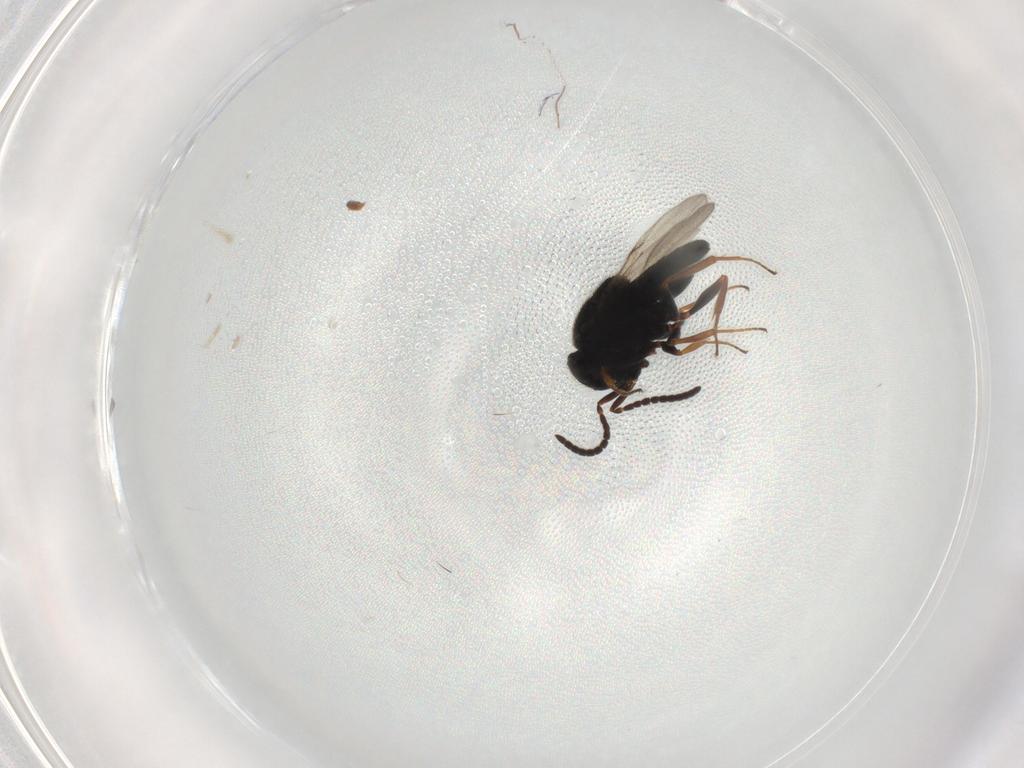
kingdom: Animalia
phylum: Arthropoda
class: Insecta
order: Hymenoptera
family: Scelionidae
